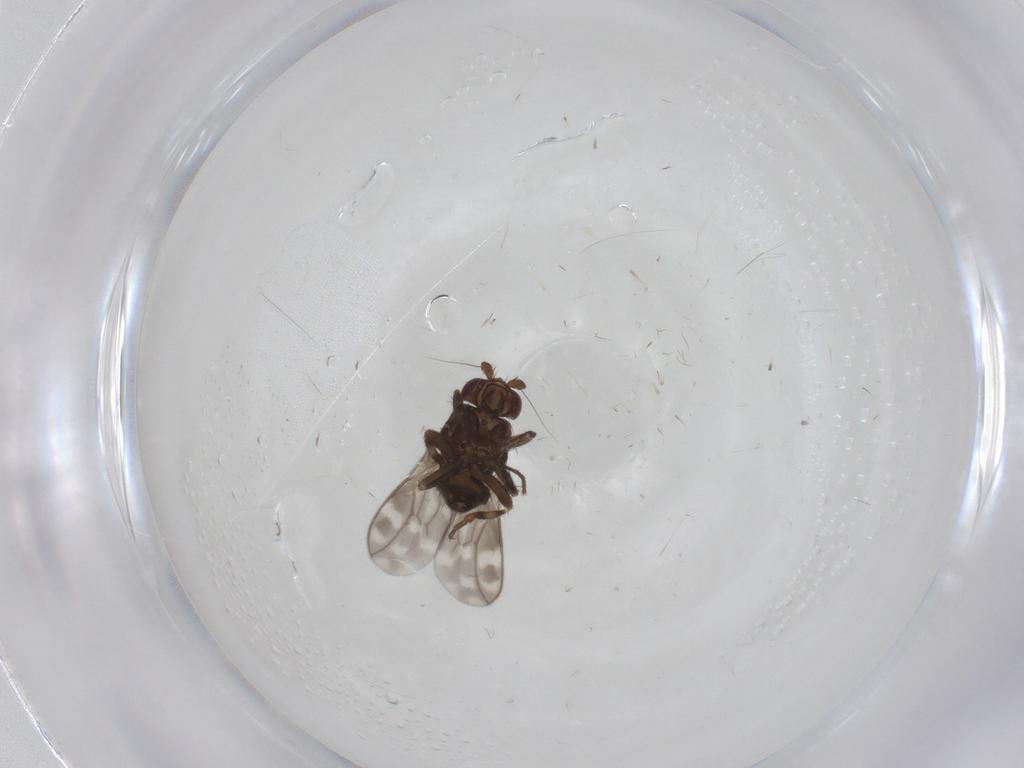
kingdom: Animalia
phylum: Arthropoda
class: Insecta
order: Diptera
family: Sphaeroceridae
